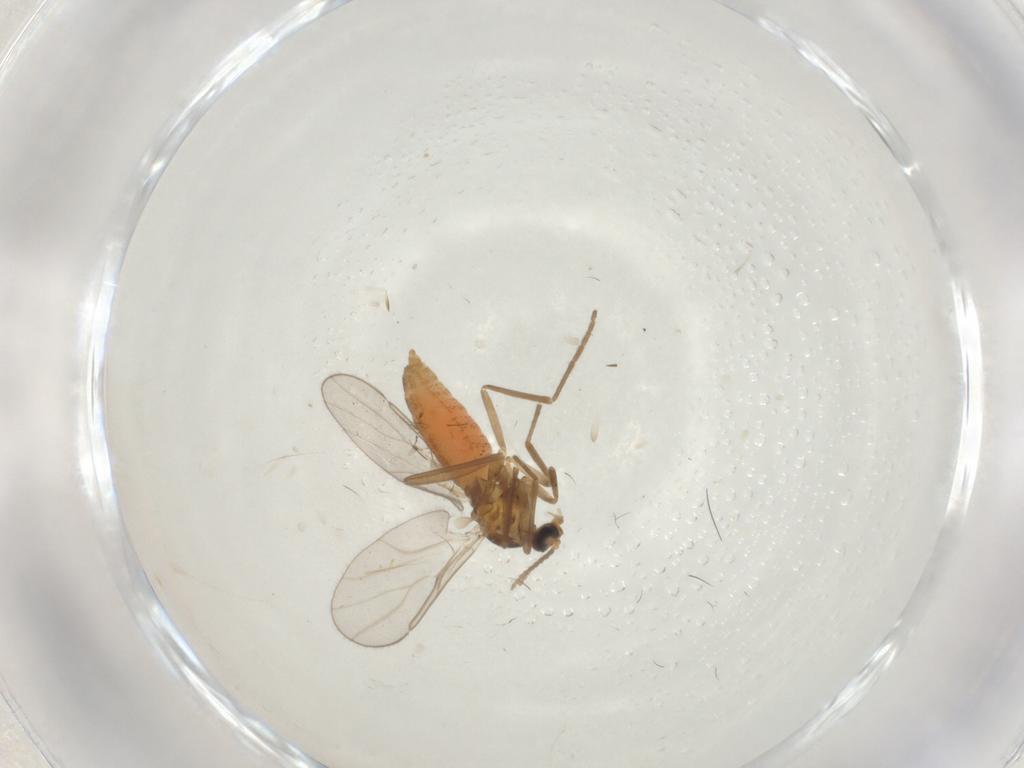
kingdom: Animalia
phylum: Arthropoda
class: Insecta
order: Diptera
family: Cecidomyiidae
